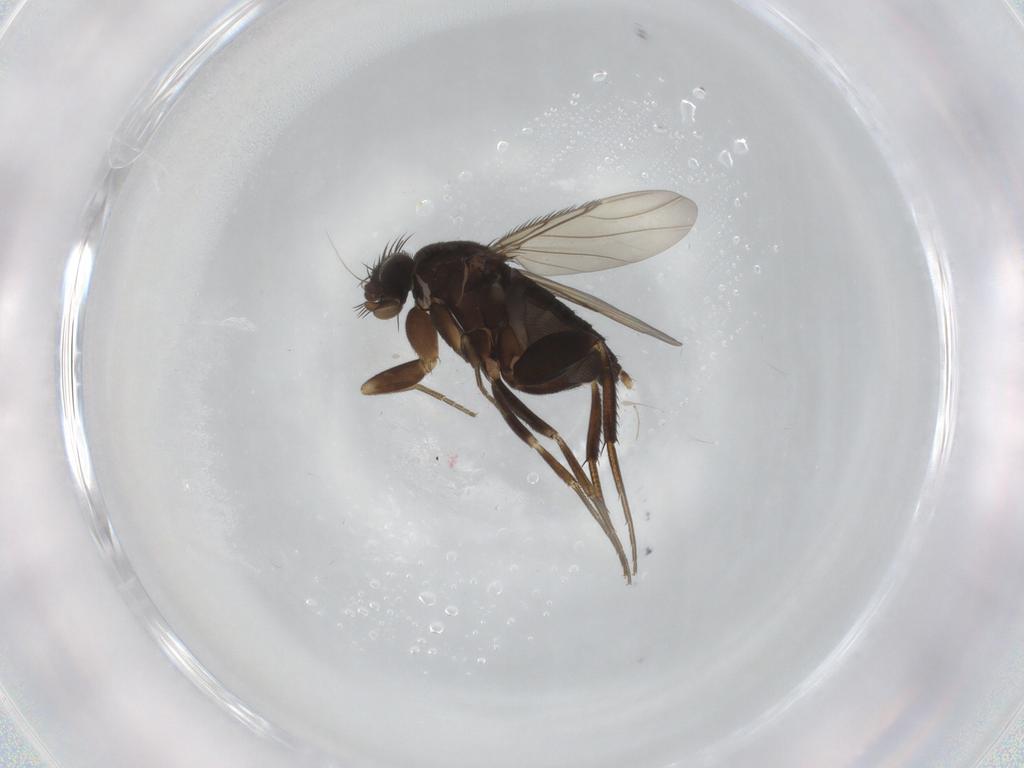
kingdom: Animalia
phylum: Arthropoda
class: Insecta
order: Diptera
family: Phoridae
